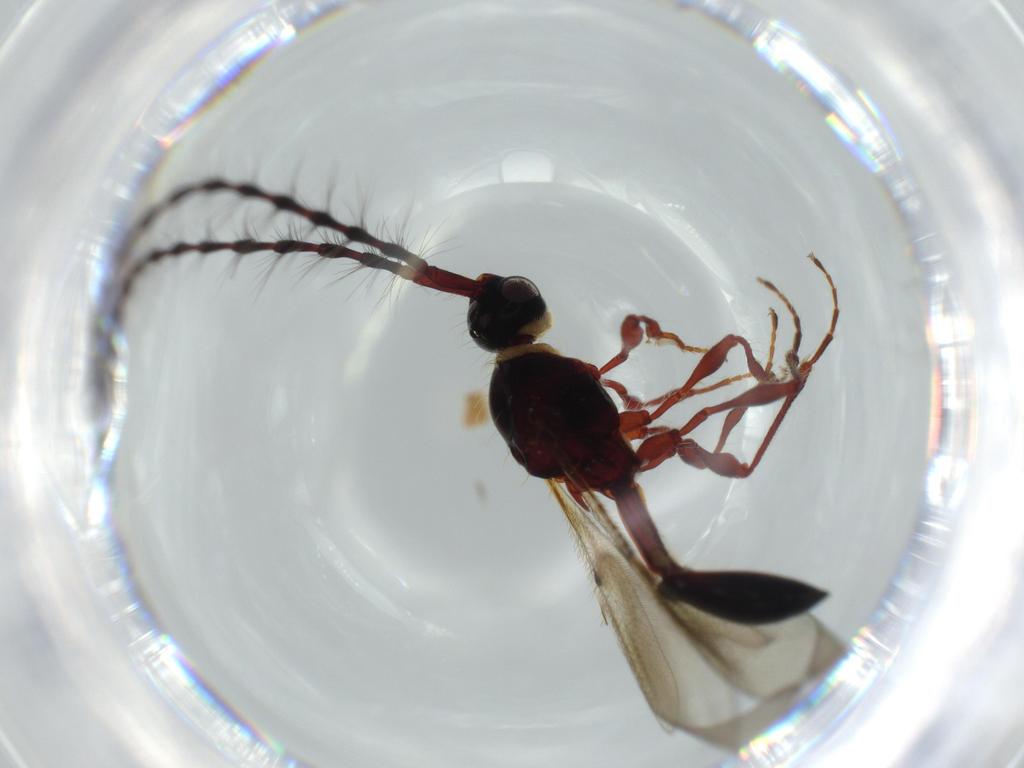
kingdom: Animalia
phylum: Arthropoda
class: Insecta
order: Hymenoptera
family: Diapriidae
